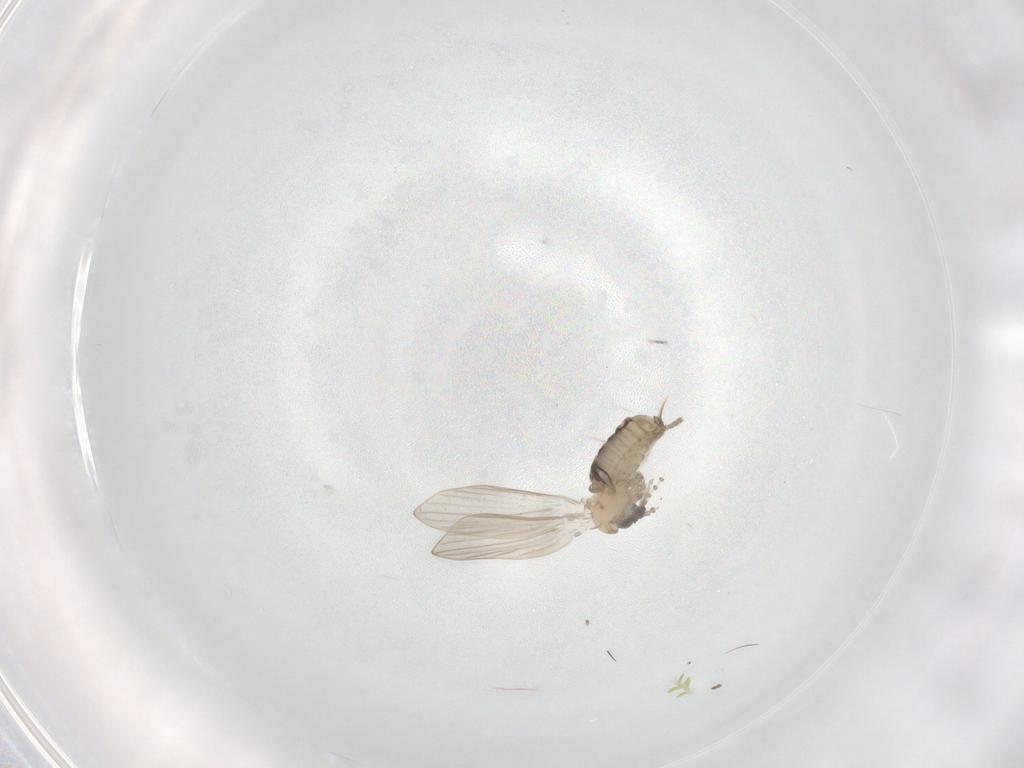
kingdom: Animalia
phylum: Arthropoda
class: Insecta
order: Diptera
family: Psychodidae
